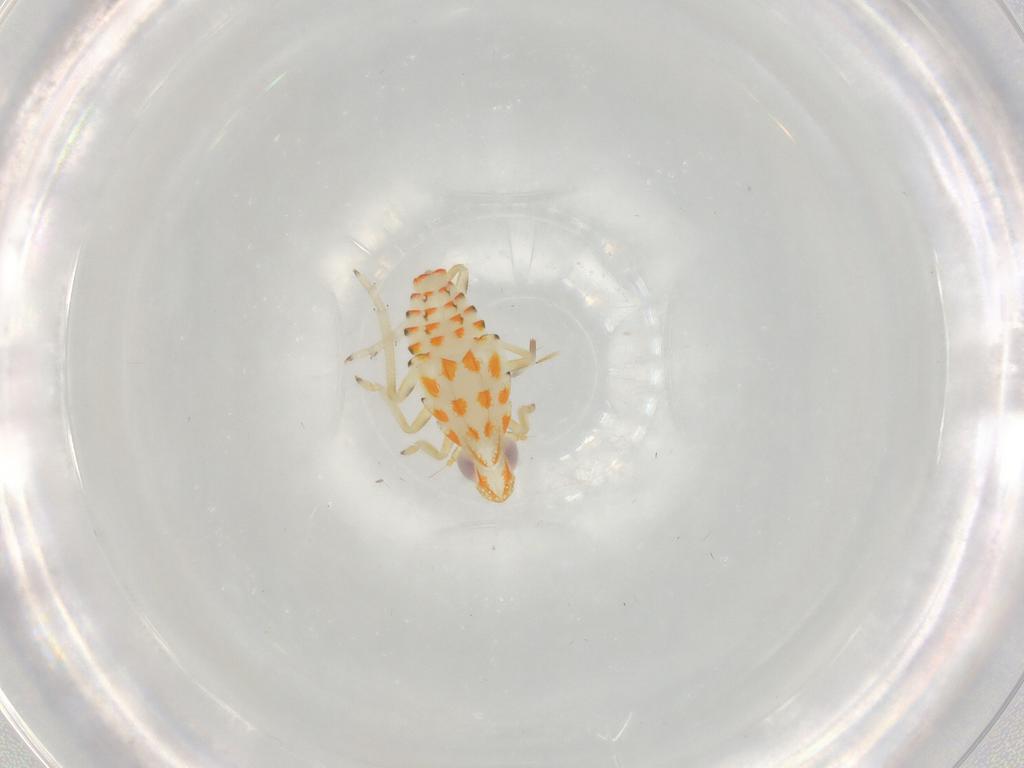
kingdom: Animalia
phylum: Arthropoda
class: Insecta
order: Hemiptera
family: Tropiduchidae
